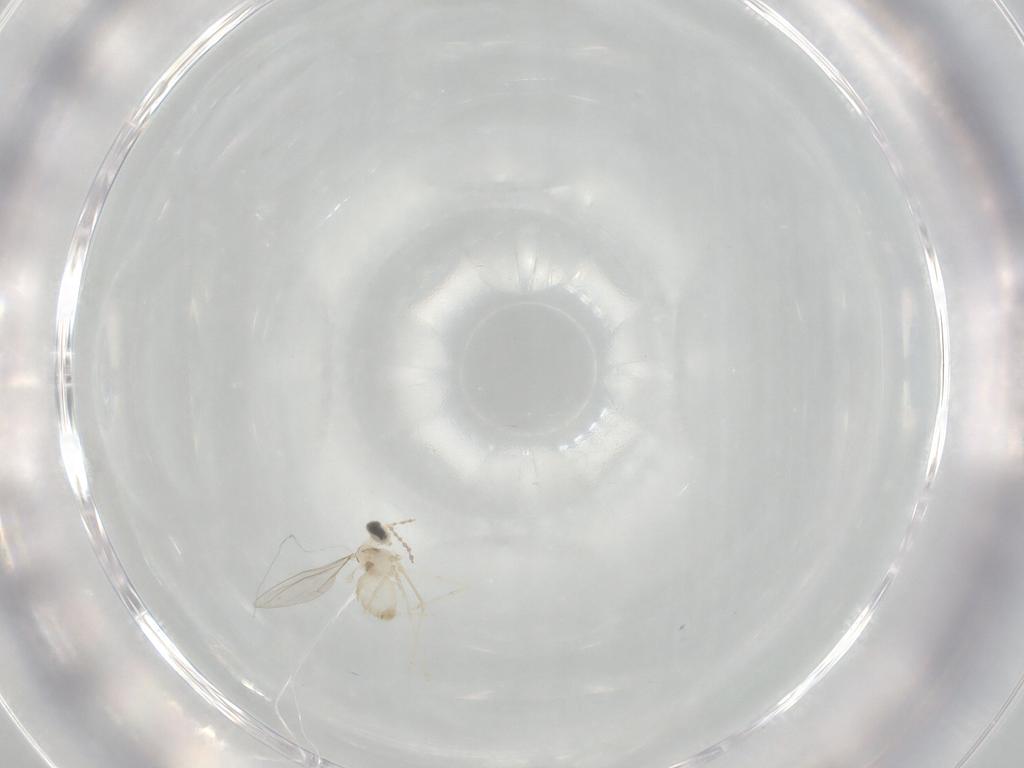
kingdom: Animalia
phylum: Arthropoda
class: Insecta
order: Diptera
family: Cecidomyiidae
